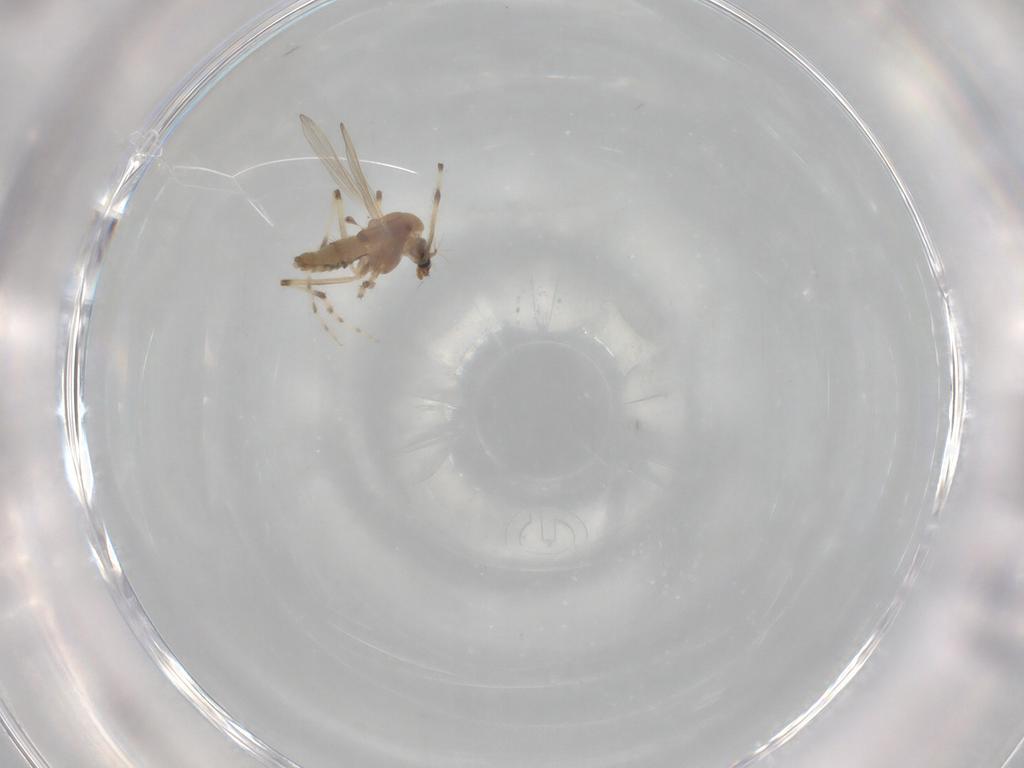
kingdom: Animalia
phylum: Arthropoda
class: Insecta
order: Diptera
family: Chironomidae
